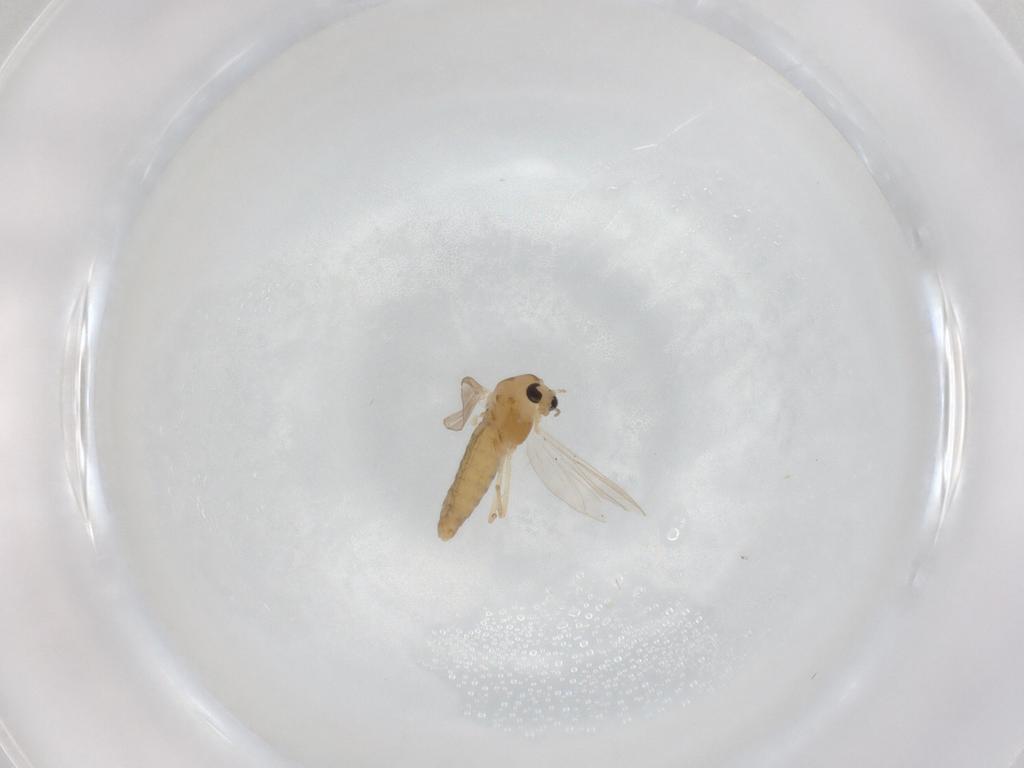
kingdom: Animalia
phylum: Arthropoda
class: Insecta
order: Diptera
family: Chironomidae
